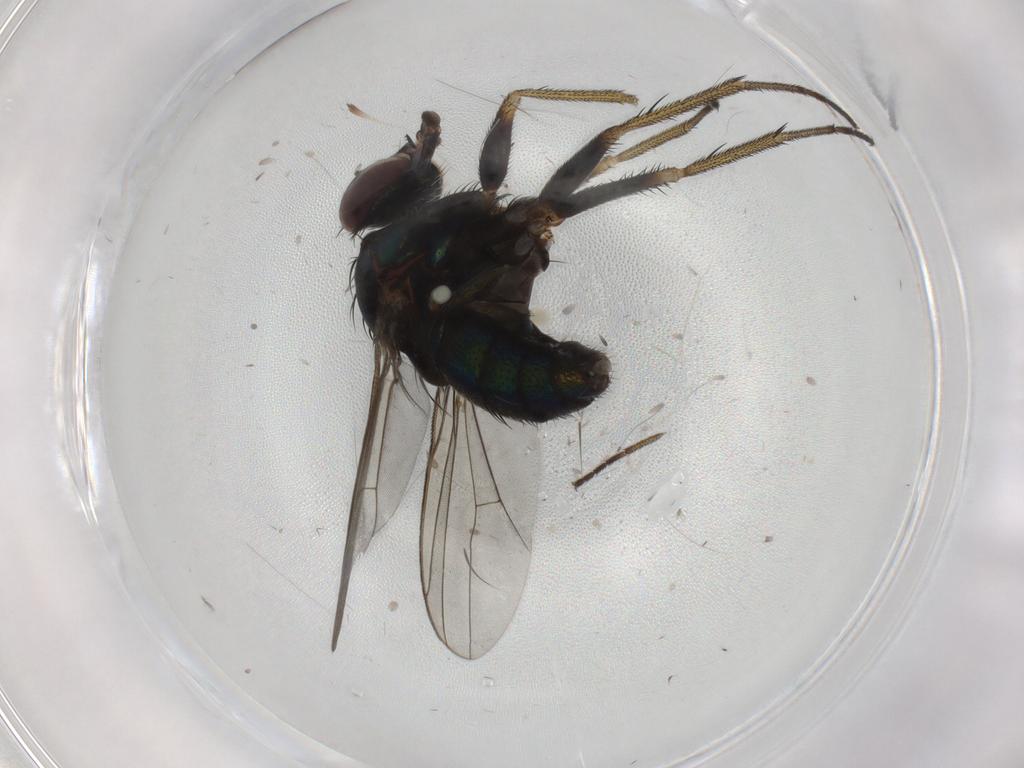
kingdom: Animalia
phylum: Arthropoda
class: Insecta
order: Diptera
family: Dolichopodidae
